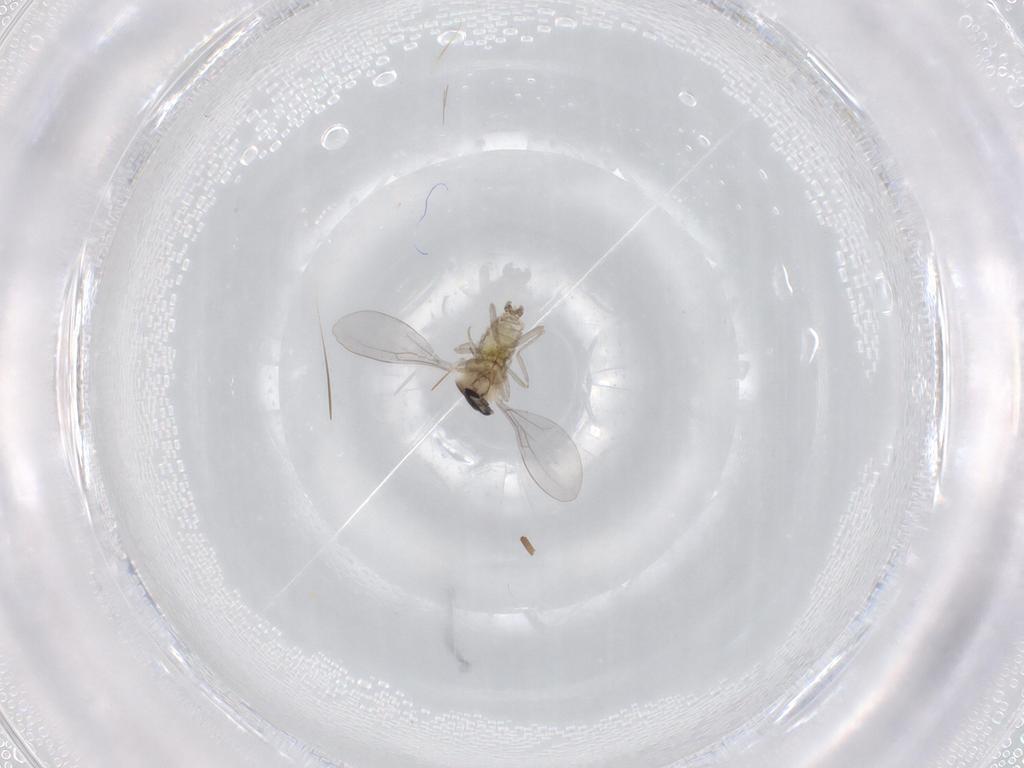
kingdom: Animalia
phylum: Arthropoda
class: Insecta
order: Diptera
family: Cecidomyiidae
